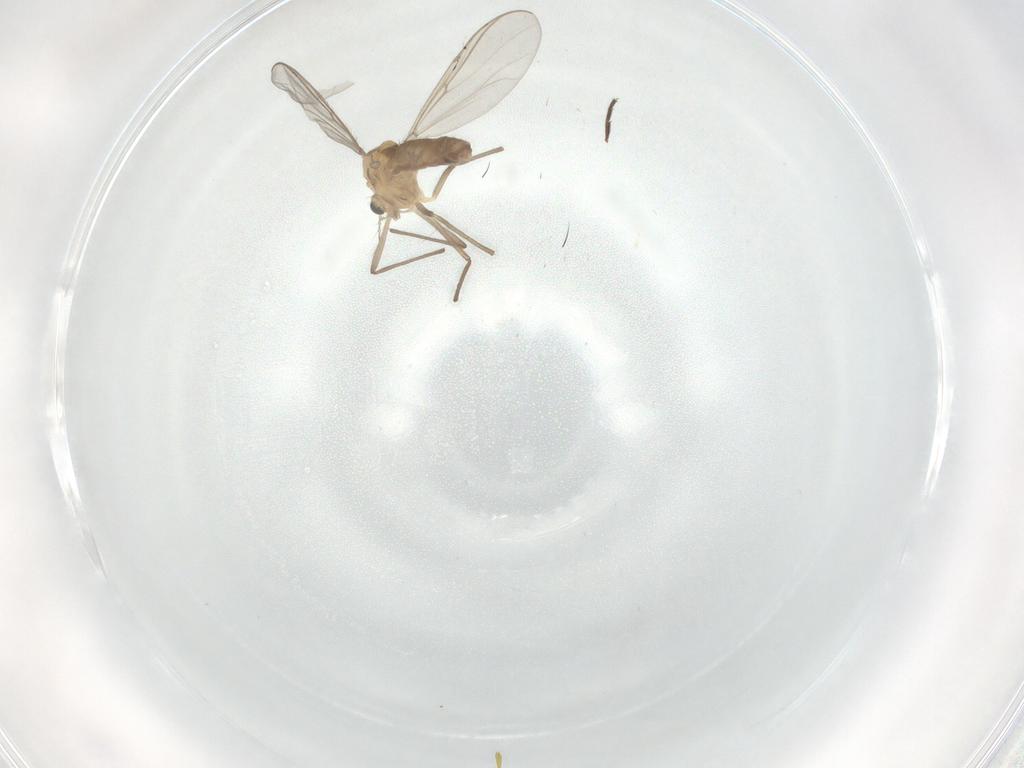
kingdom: Animalia
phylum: Arthropoda
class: Insecta
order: Diptera
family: Chironomidae
